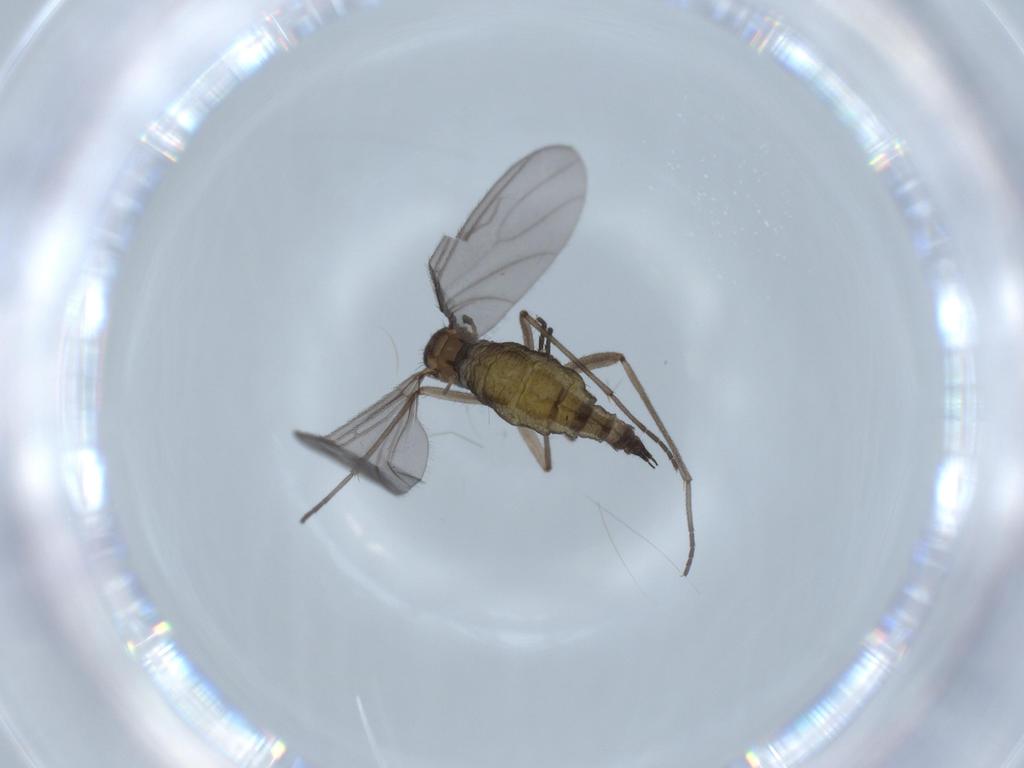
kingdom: Animalia
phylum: Arthropoda
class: Insecta
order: Diptera
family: Sciaridae
